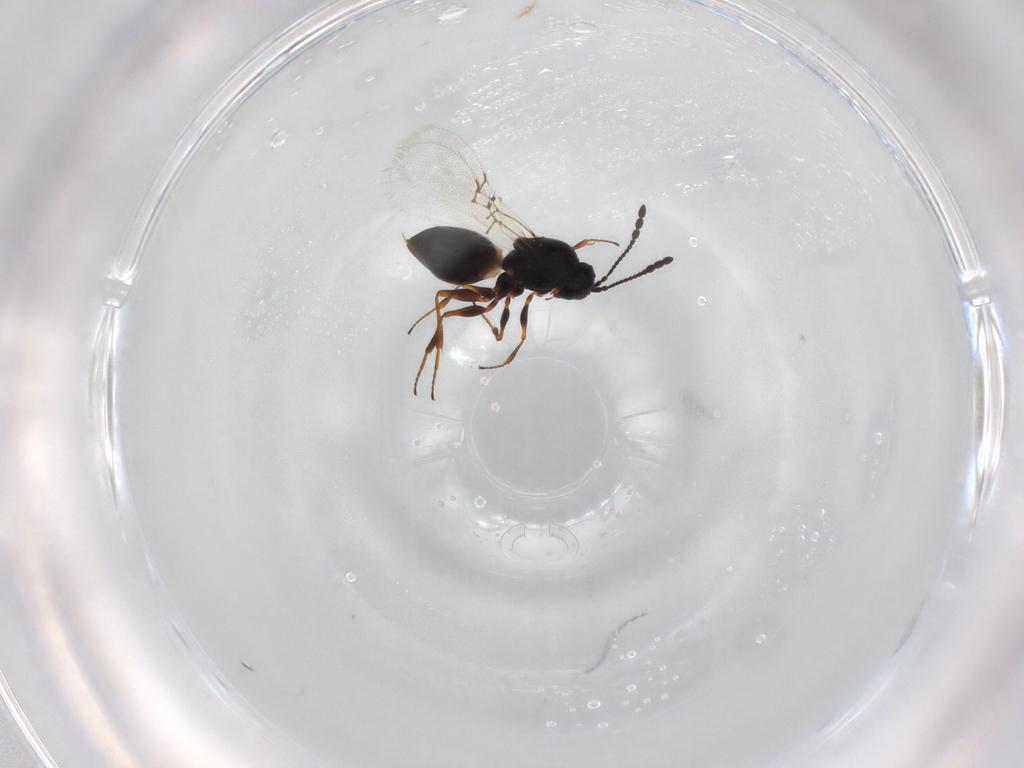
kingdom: Animalia
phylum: Arthropoda
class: Insecta
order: Hymenoptera
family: Figitidae
